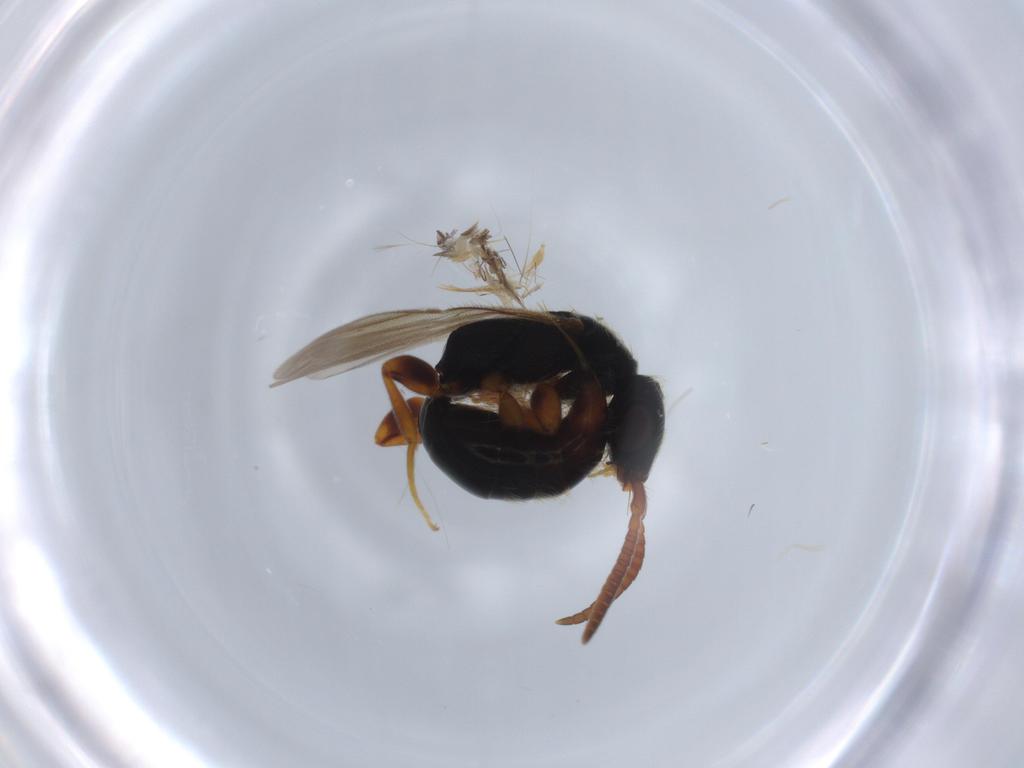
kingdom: Animalia
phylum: Arthropoda
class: Insecta
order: Hymenoptera
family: Bethylidae
